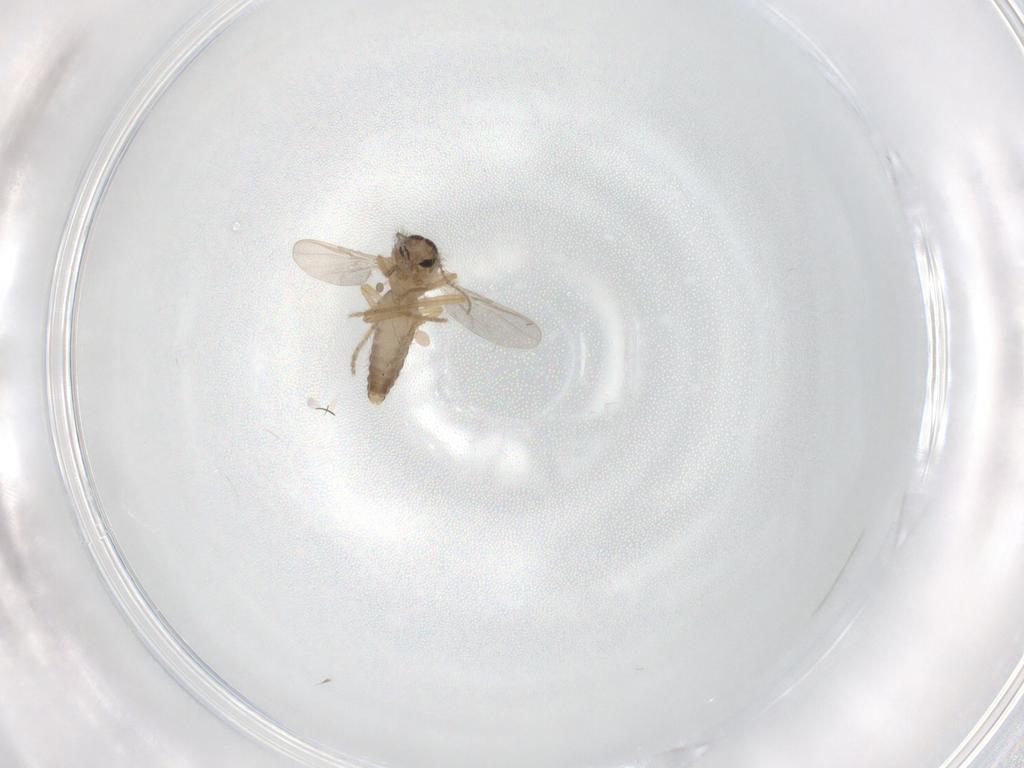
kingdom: Animalia
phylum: Arthropoda
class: Insecta
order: Diptera
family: Ceratopogonidae
